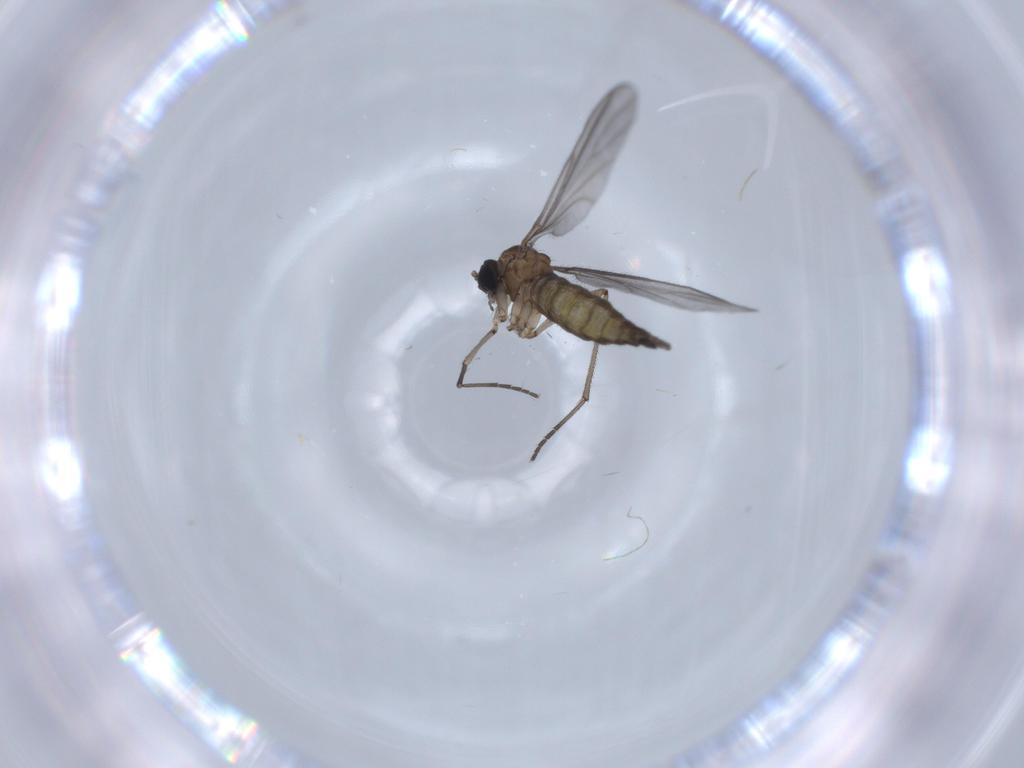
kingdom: Animalia
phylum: Arthropoda
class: Insecta
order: Diptera
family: Sciaridae
